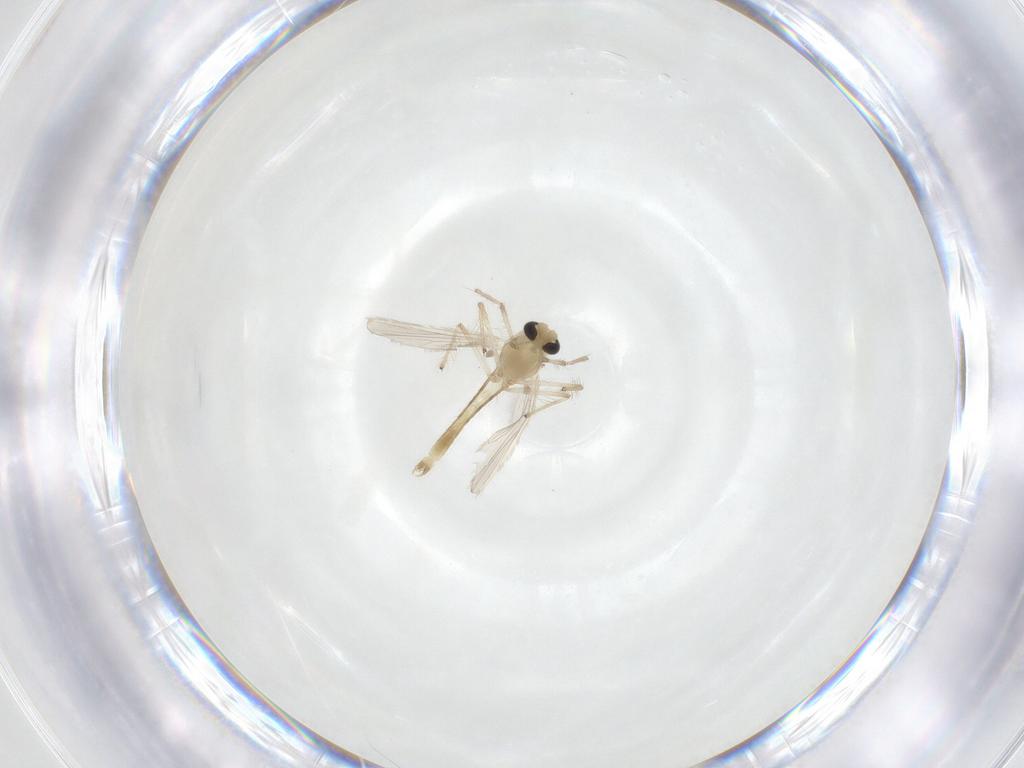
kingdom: Animalia
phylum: Arthropoda
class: Insecta
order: Diptera
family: Chironomidae
